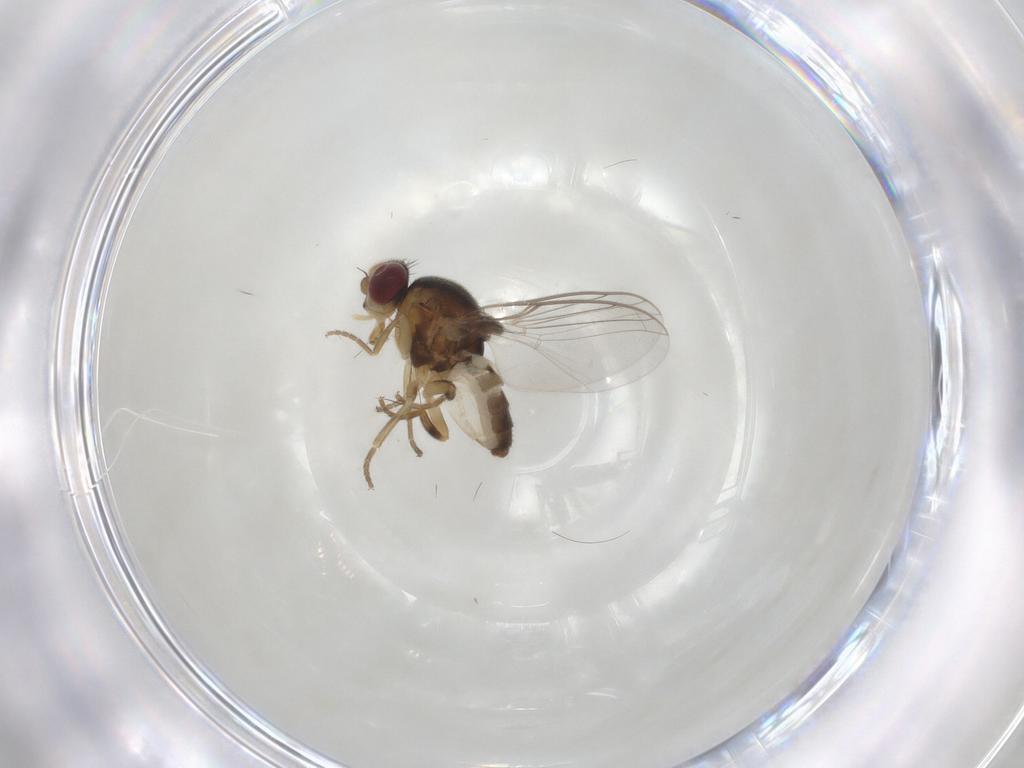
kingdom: Animalia
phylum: Arthropoda
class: Insecta
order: Diptera
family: Chloropidae
